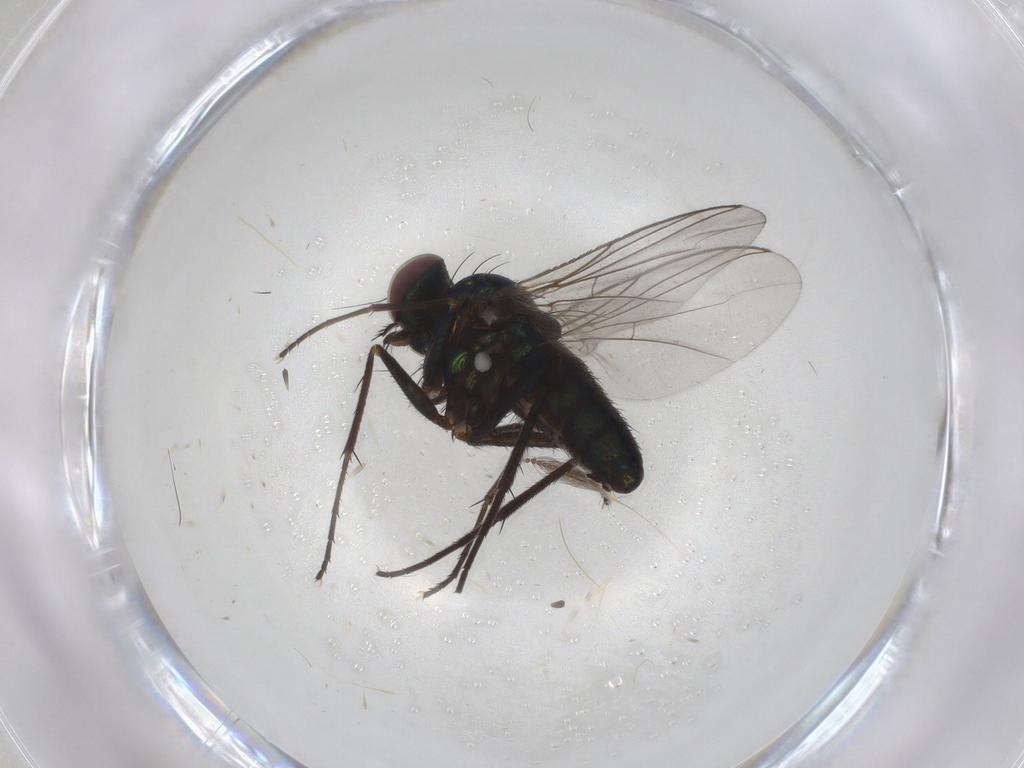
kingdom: Animalia
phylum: Arthropoda
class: Insecta
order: Diptera
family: Dolichopodidae
